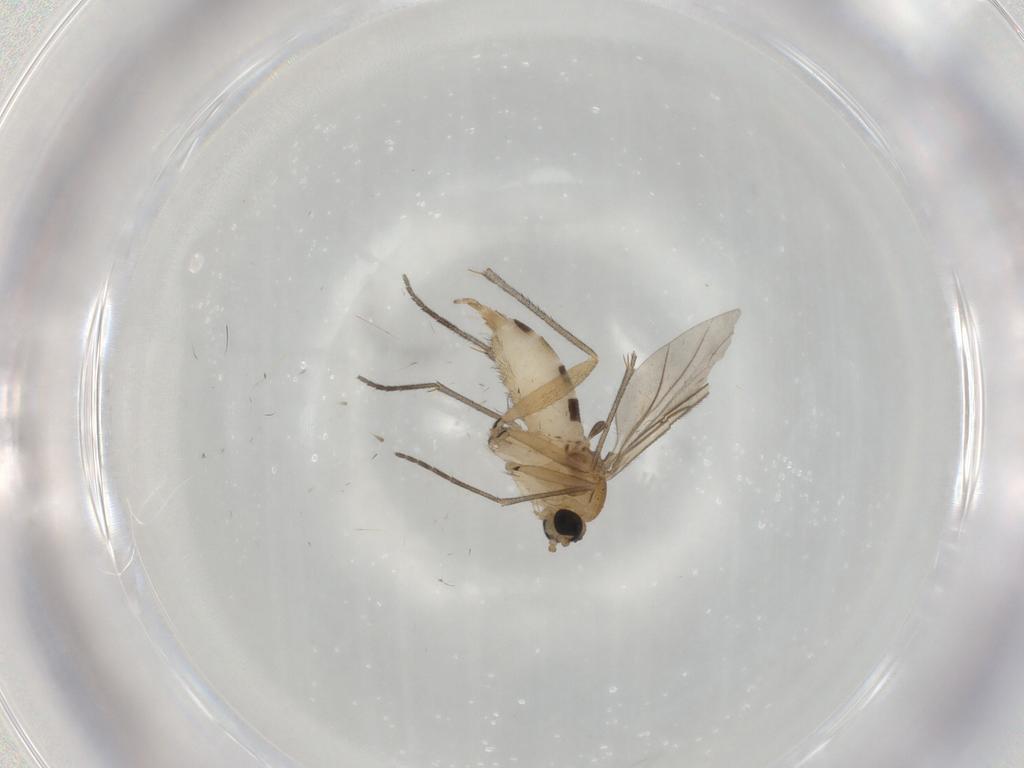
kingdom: Animalia
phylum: Arthropoda
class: Insecta
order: Diptera
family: Sciaridae
